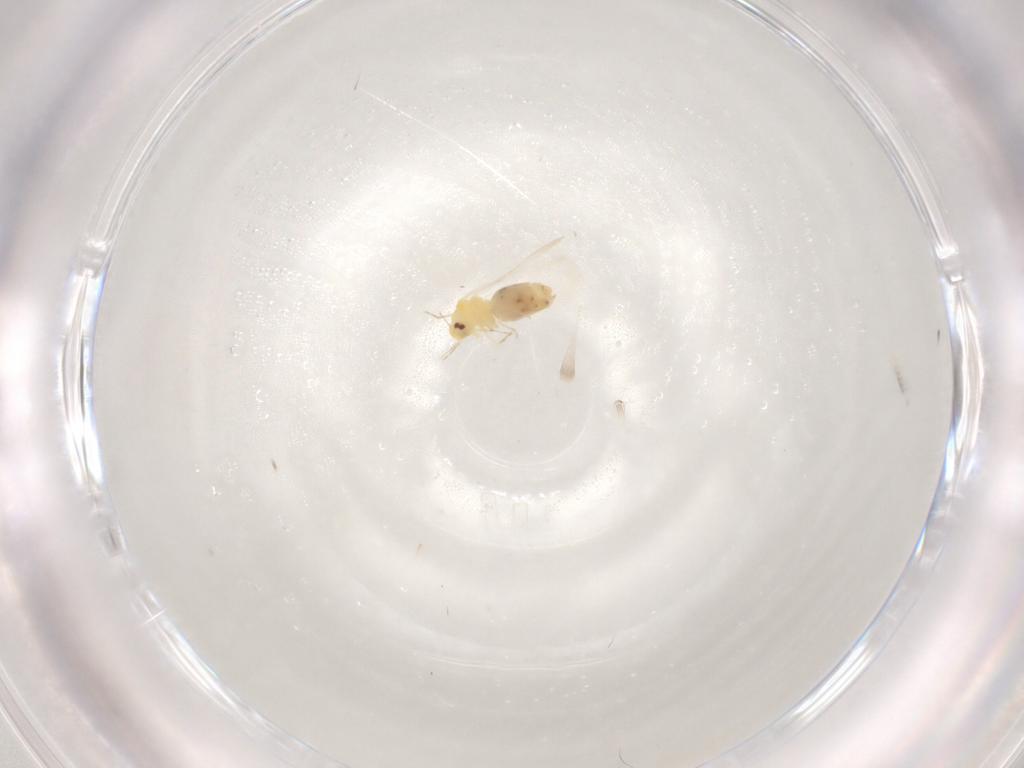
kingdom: Animalia
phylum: Arthropoda
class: Insecta
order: Hemiptera
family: Aleyrodidae
